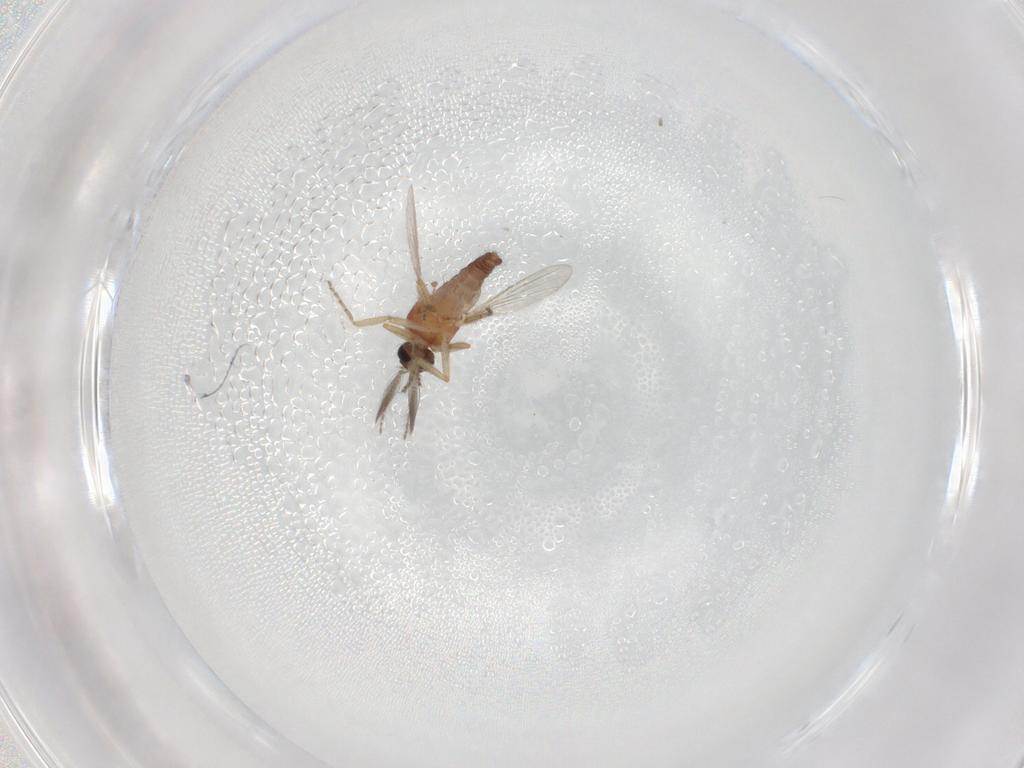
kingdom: Animalia
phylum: Arthropoda
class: Insecta
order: Diptera
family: Ceratopogonidae
